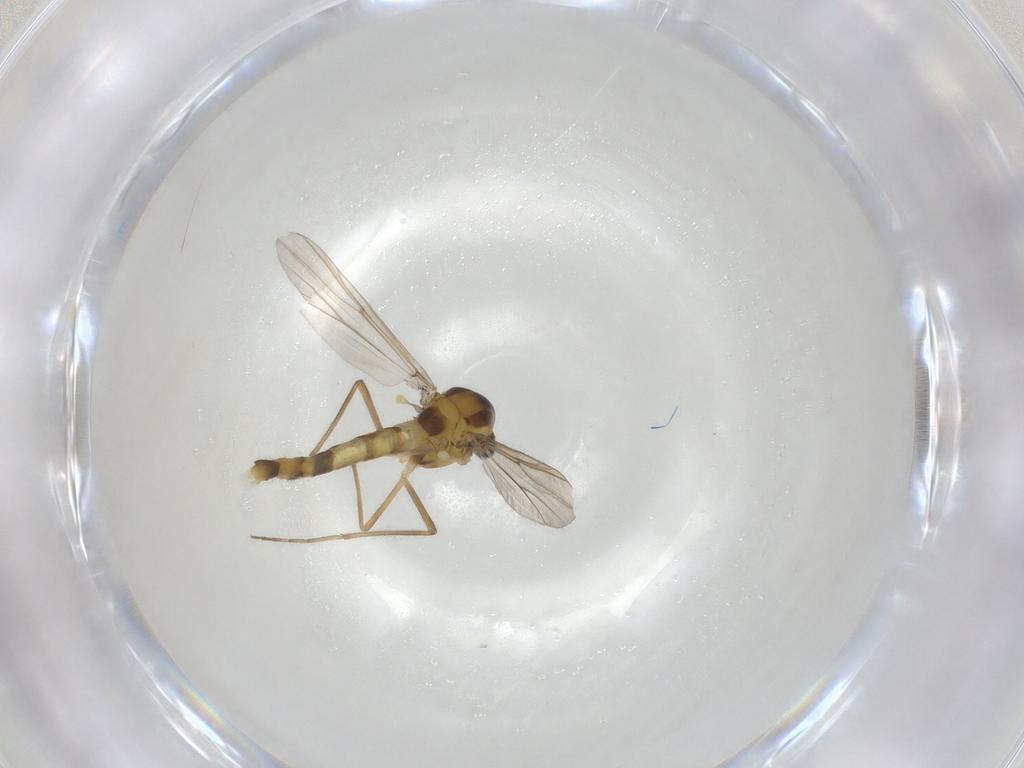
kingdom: Animalia
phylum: Arthropoda
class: Insecta
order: Diptera
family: Chironomidae
